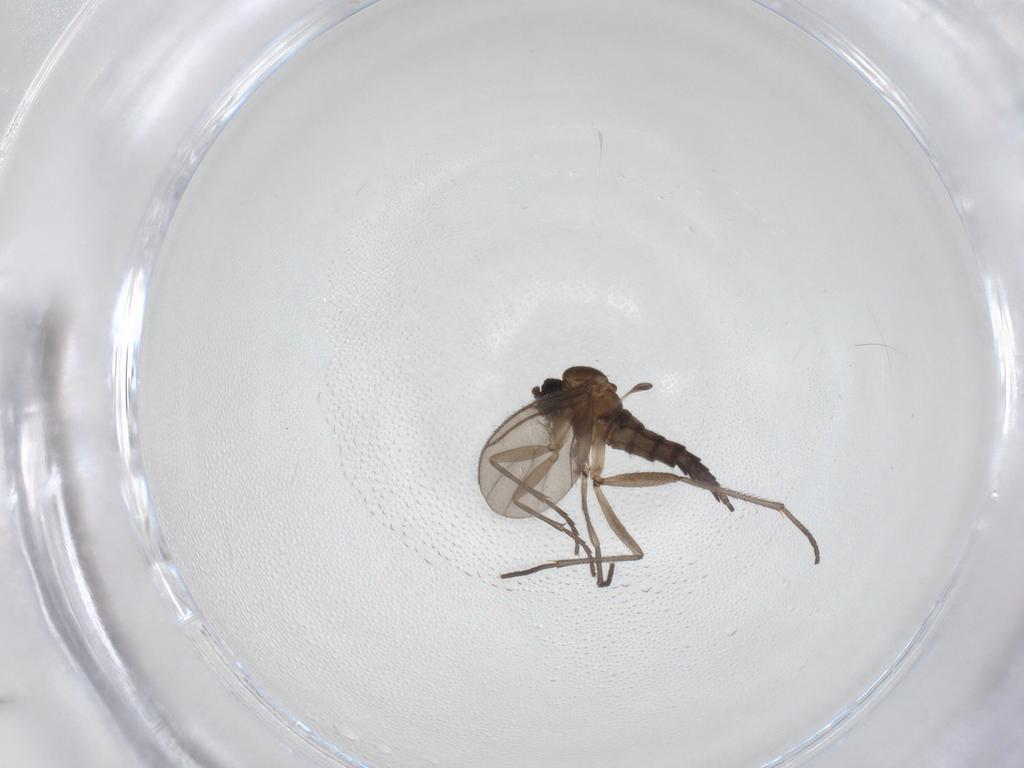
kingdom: Animalia
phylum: Arthropoda
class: Insecta
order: Diptera
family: Sciaridae
